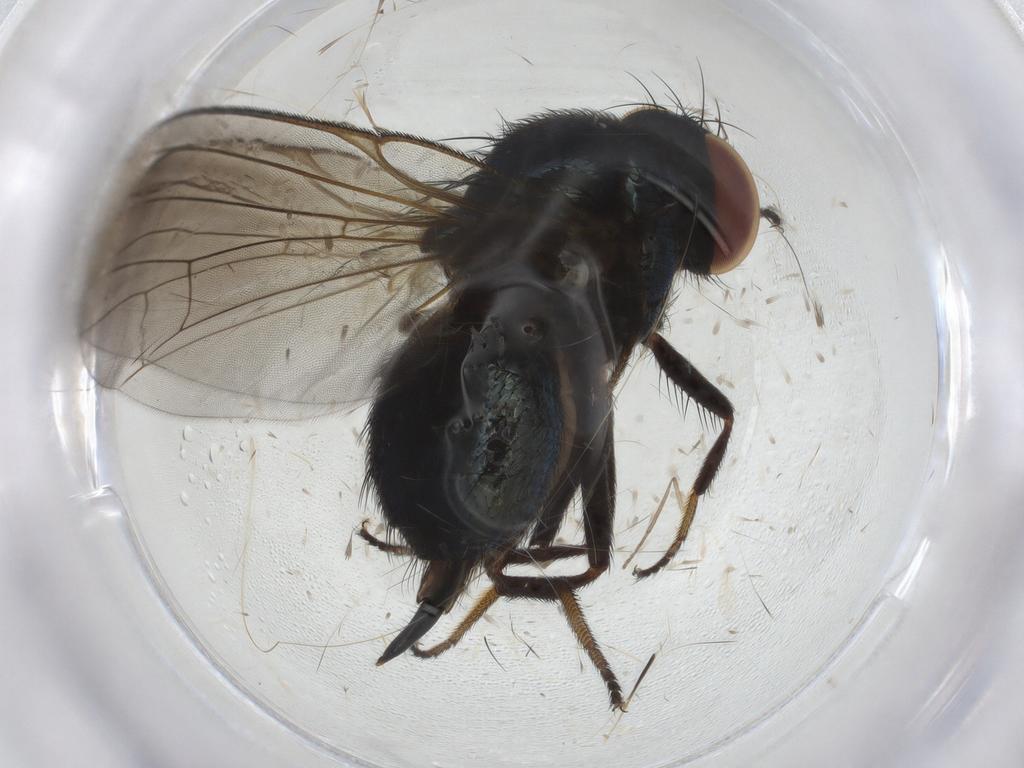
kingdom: Animalia
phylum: Arthropoda
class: Insecta
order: Diptera
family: Lonchaeidae
